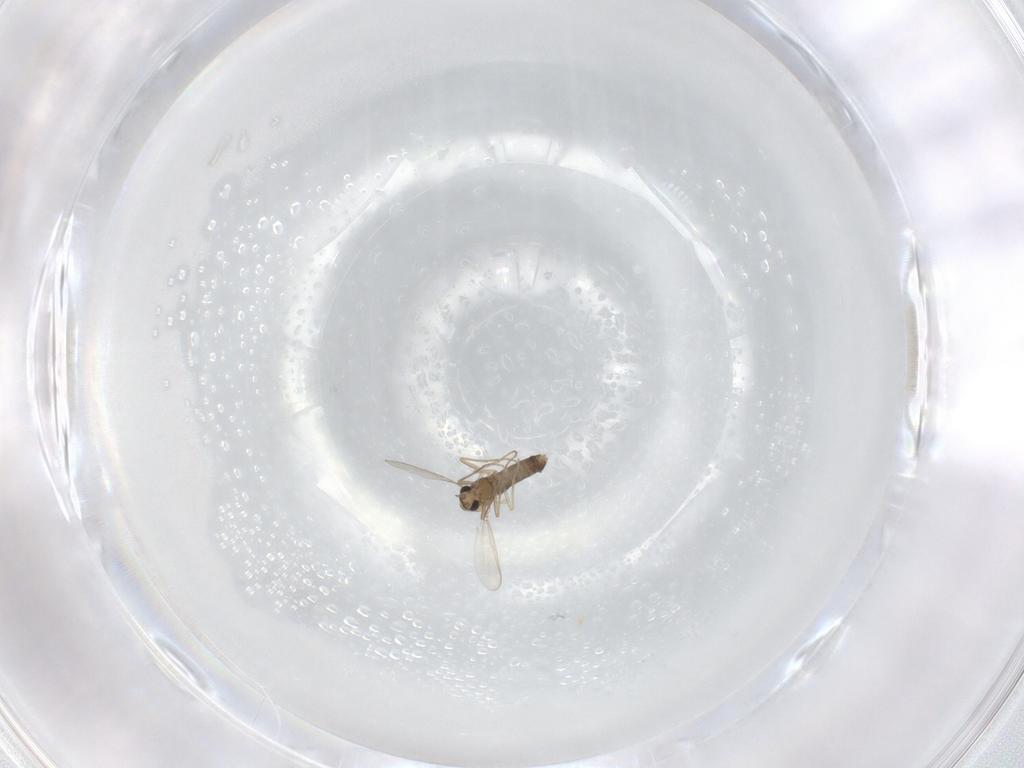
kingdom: Animalia
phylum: Arthropoda
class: Insecta
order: Diptera
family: Chironomidae
